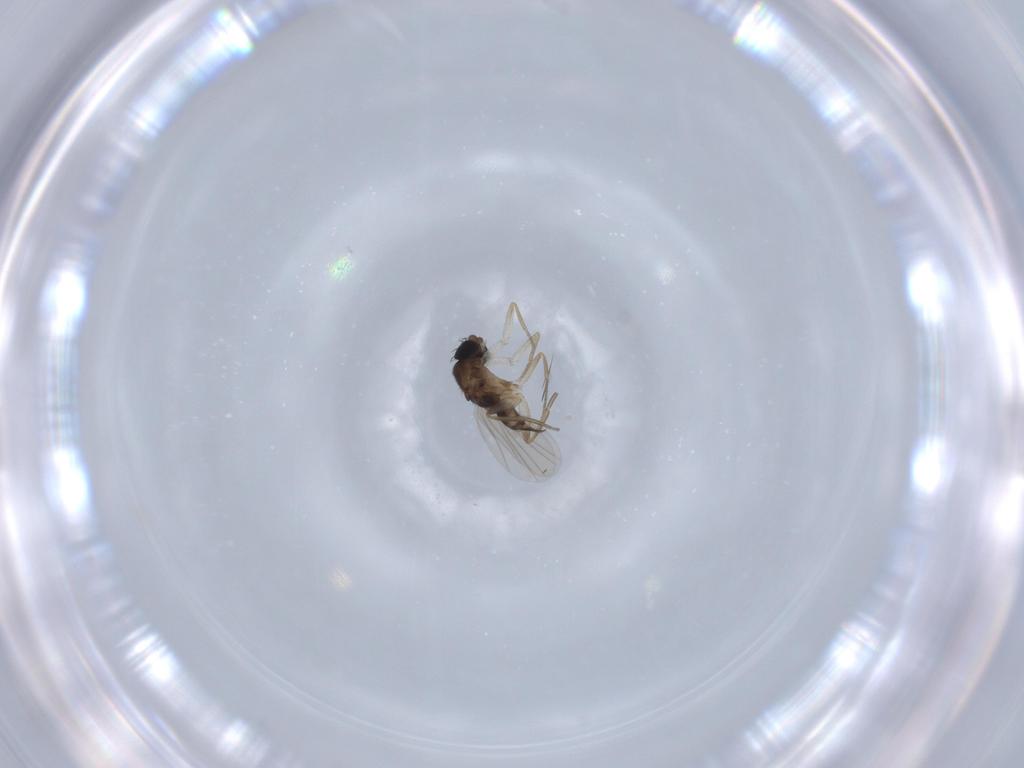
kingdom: Animalia
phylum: Arthropoda
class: Insecta
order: Diptera
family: Phoridae
